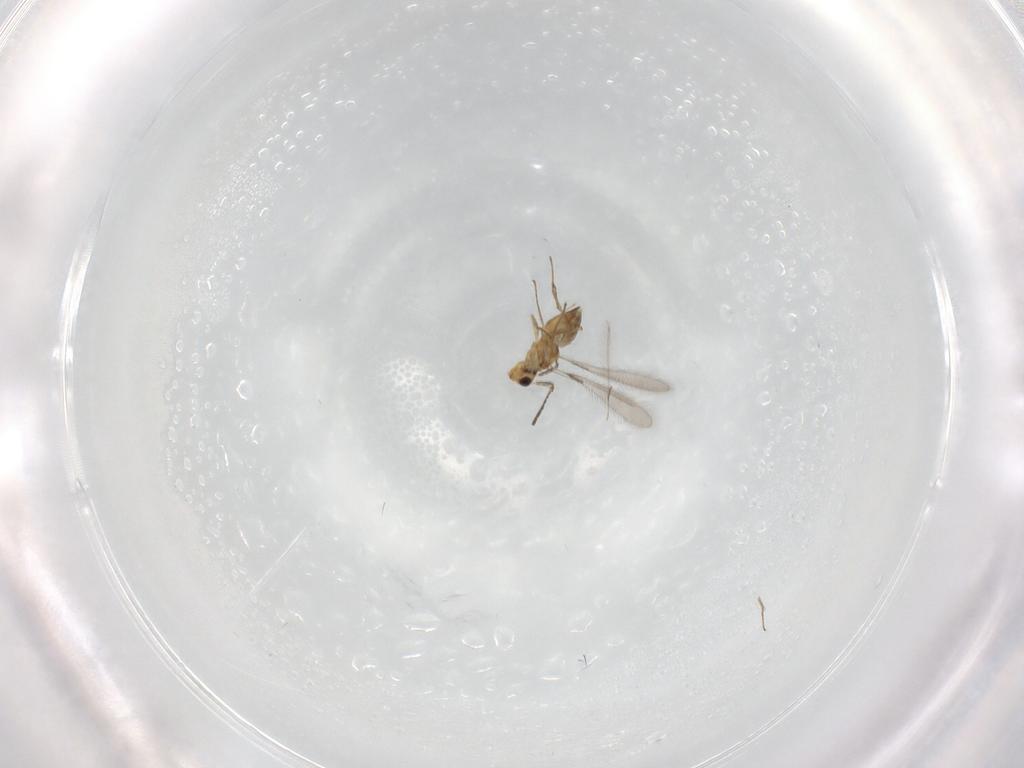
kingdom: Animalia
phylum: Arthropoda
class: Insecta
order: Hymenoptera
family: Mymaridae
